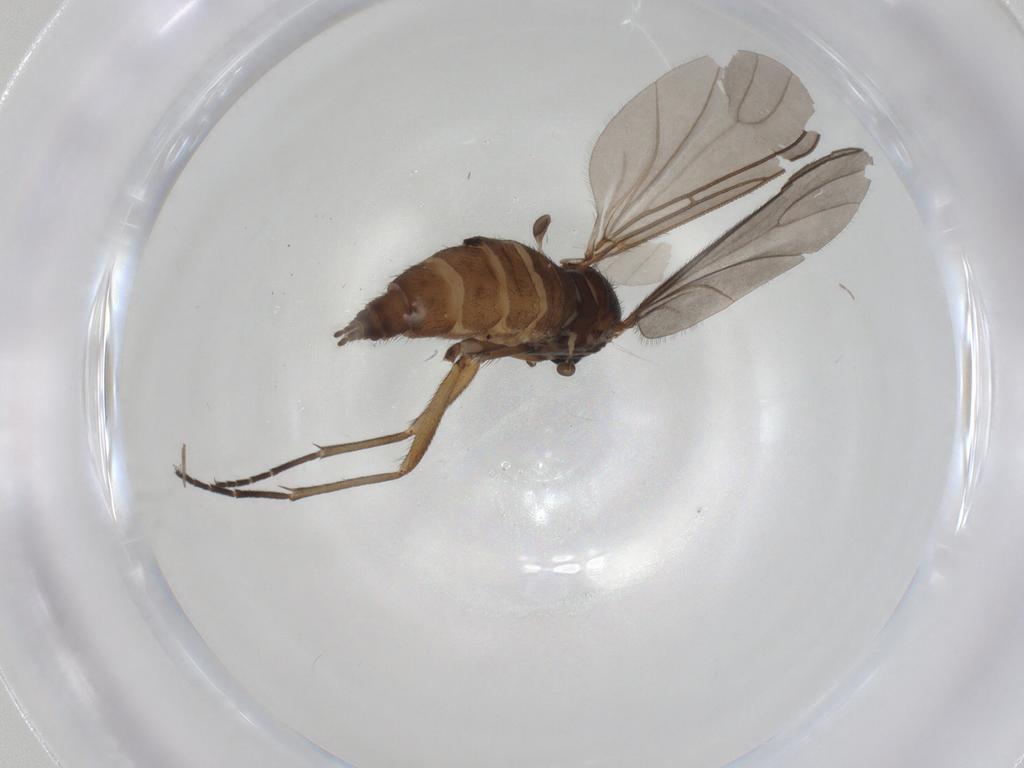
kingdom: Animalia
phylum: Arthropoda
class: Insecta
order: Diptera
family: Sciaridae
